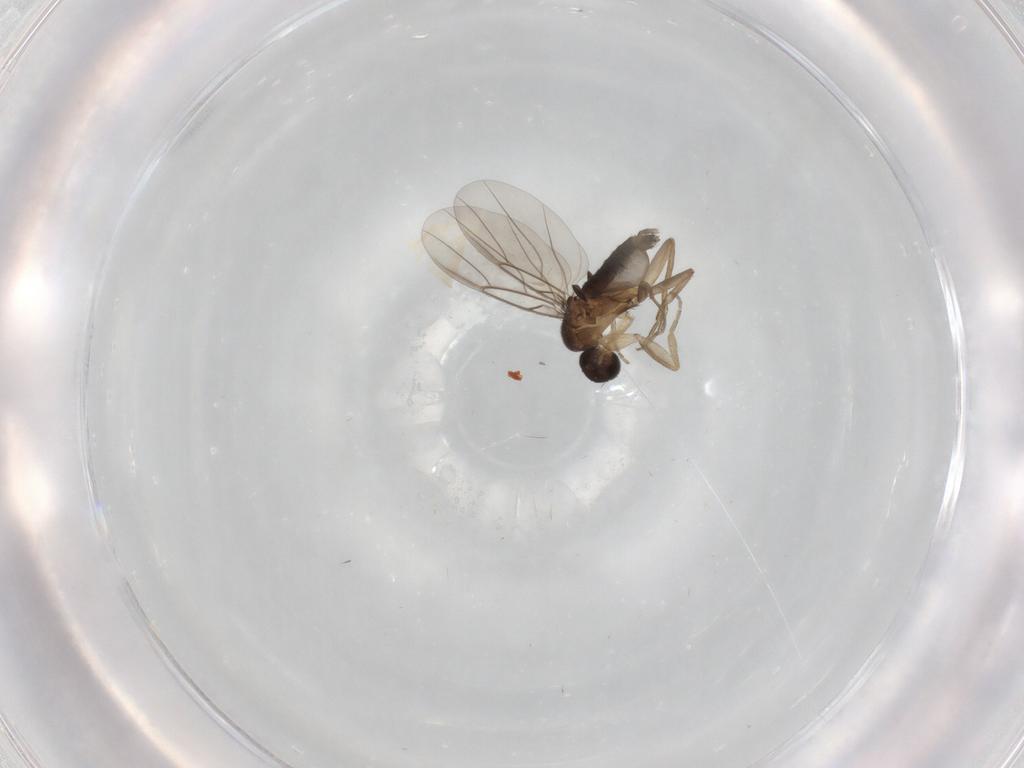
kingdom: Animalia
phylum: Arthropoda
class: Insecta
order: Diptera
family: Phoridae
